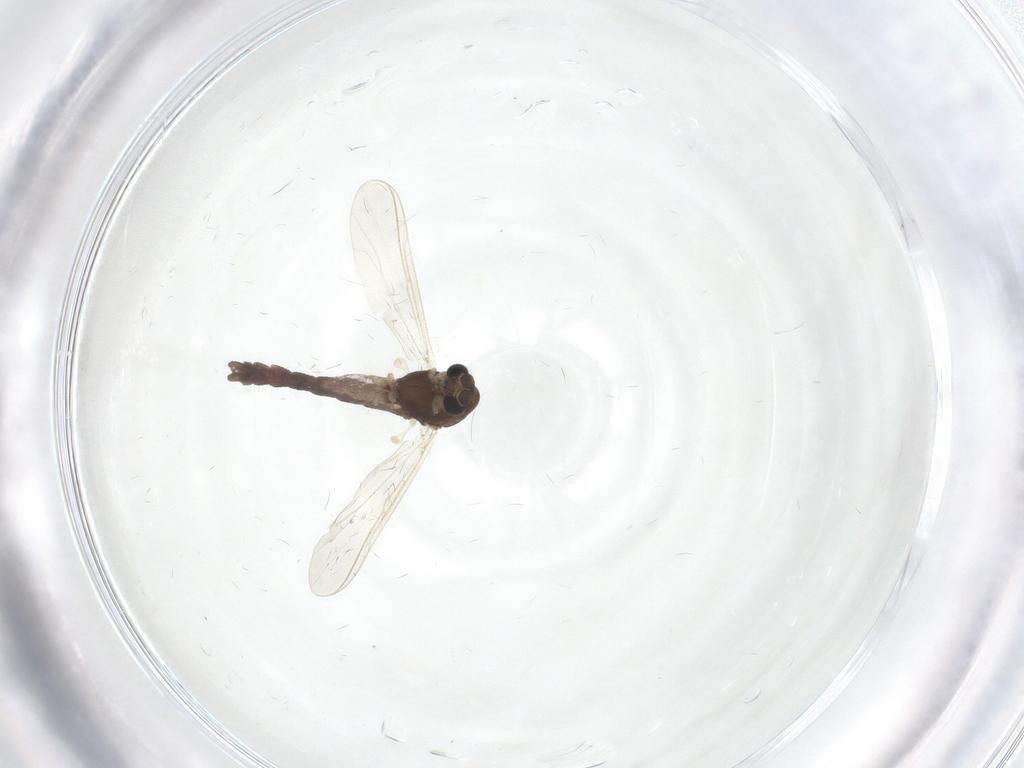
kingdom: Animalia
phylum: Arthropoda
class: Insecta
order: Diptera
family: Chironomidae
